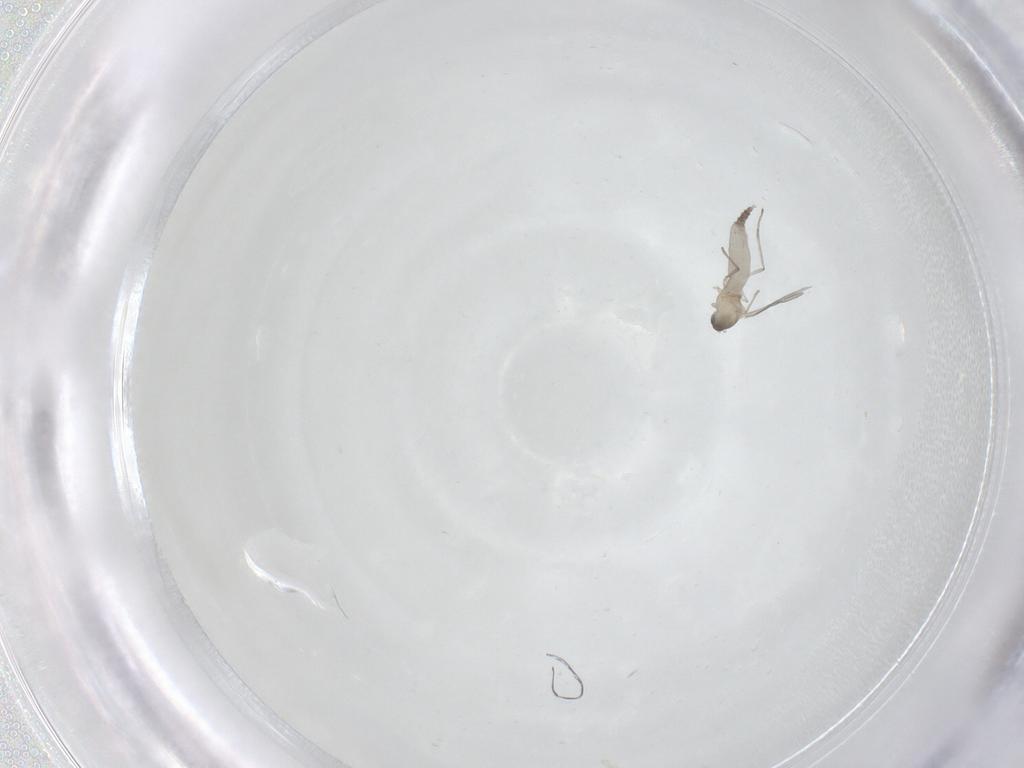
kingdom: Animalia
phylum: Arthropoda
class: Insecta
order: Diptera
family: Cecidomyiidae
